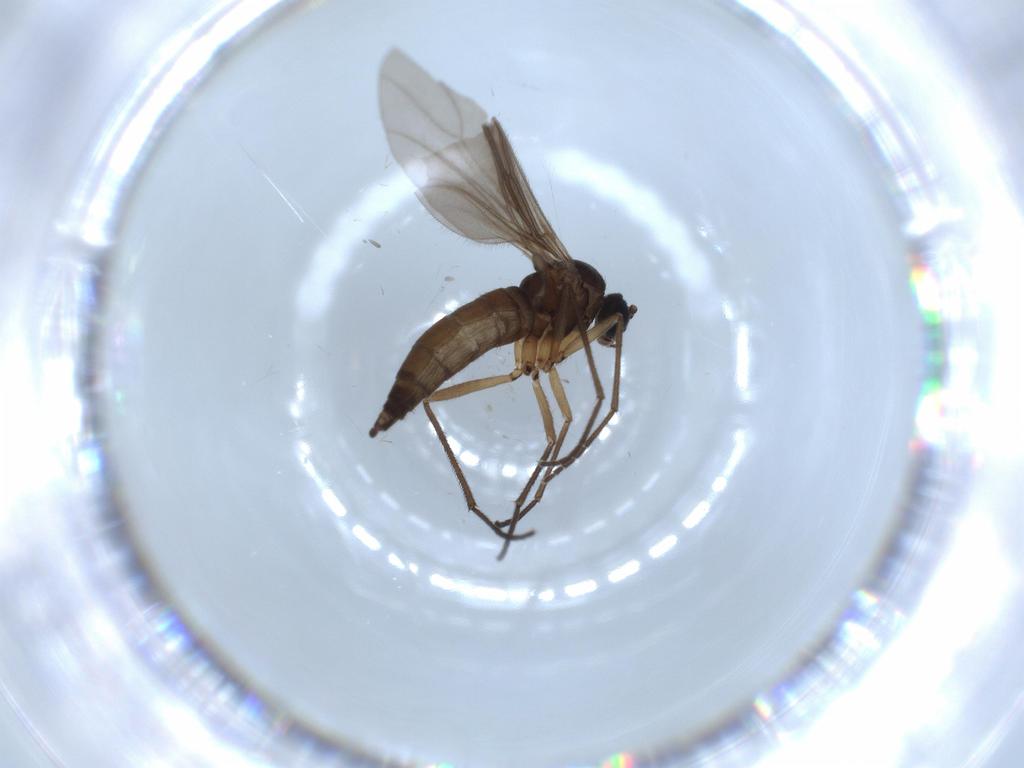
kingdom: Animalia
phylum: Arthropoda
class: Insecta
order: Diptera
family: Sciaridae
